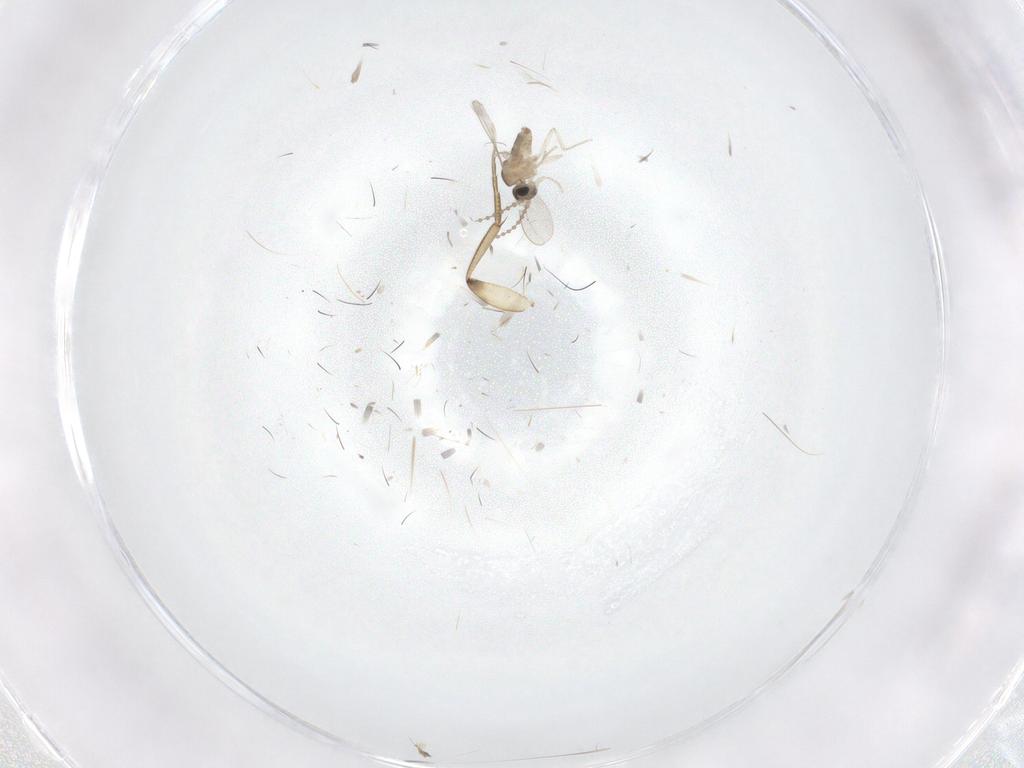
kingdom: Animalia
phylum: Arthropoda
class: Insecta
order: Diptera
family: Phoridae
